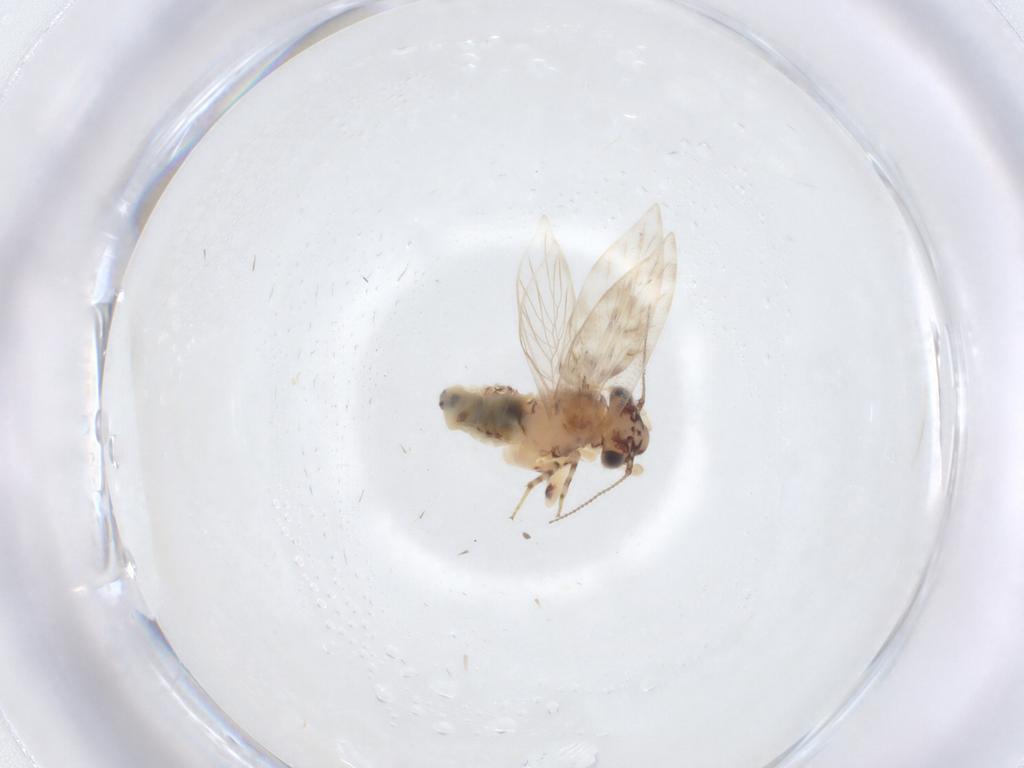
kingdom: Animalia
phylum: Arthropoda
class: Insecta
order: Psocodea
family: Lepidopsocidae
